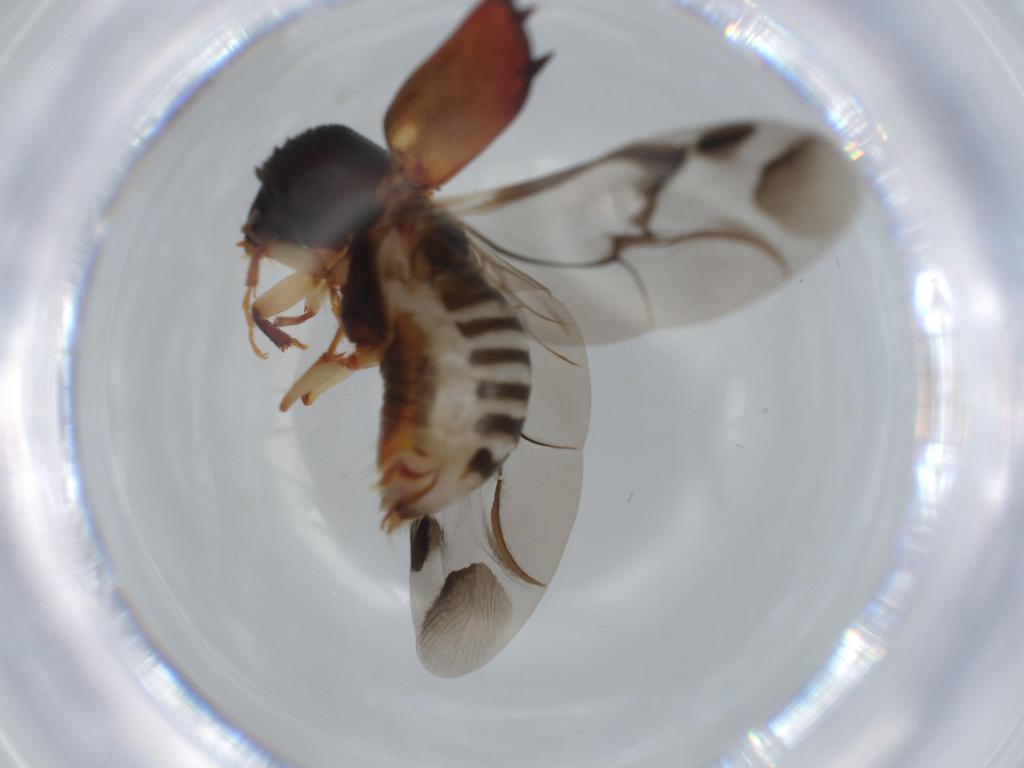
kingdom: Animalia
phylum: Arthropoda
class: Insecta
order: Coleoptera
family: Bostrichidae
